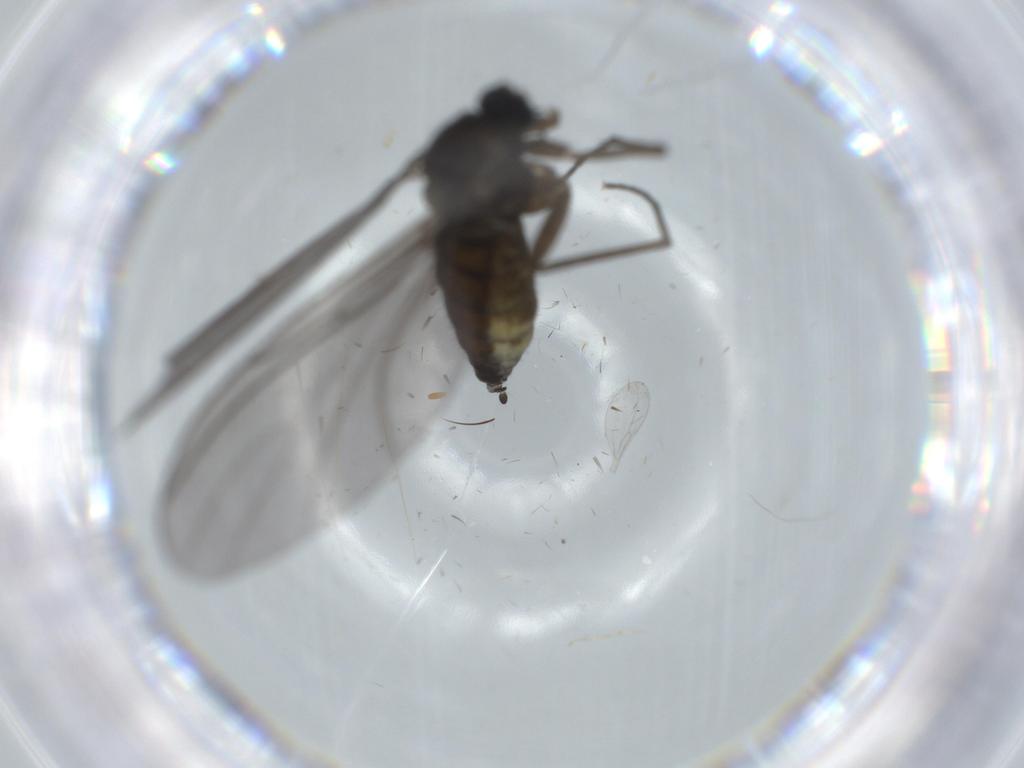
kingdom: Animalia
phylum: Arthropoda
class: Insecta
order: Diptera
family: Sciaridae
